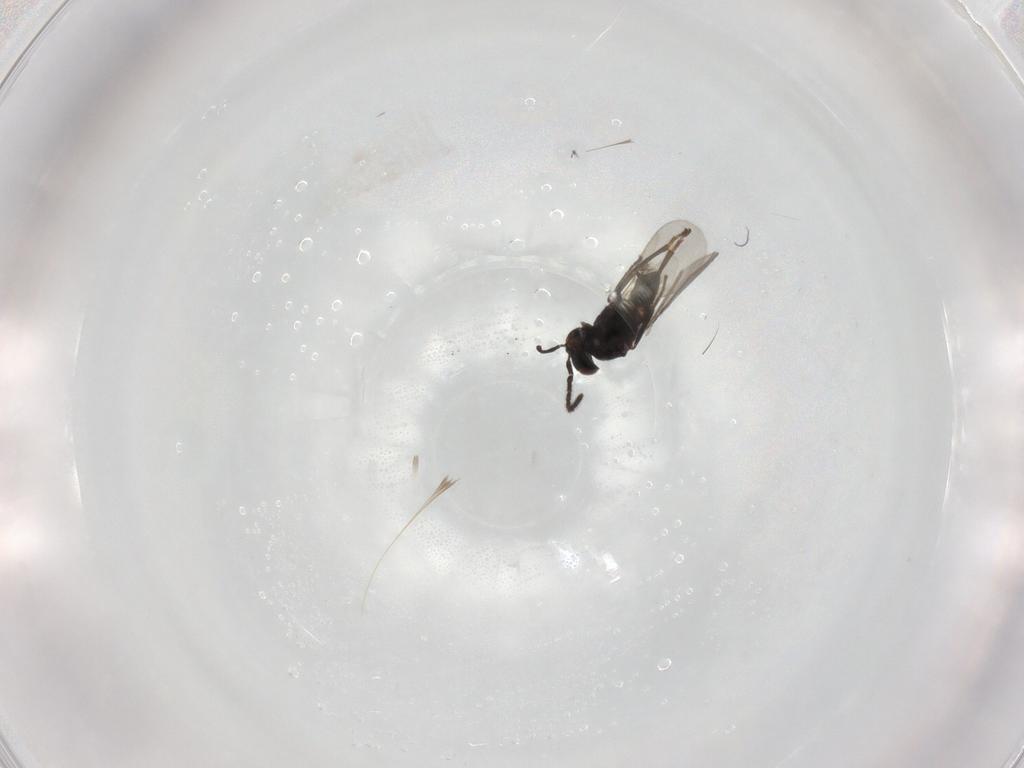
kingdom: Animalia
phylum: Arthropoda
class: Insecta
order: Hymenoptera
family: Encyrtidae
